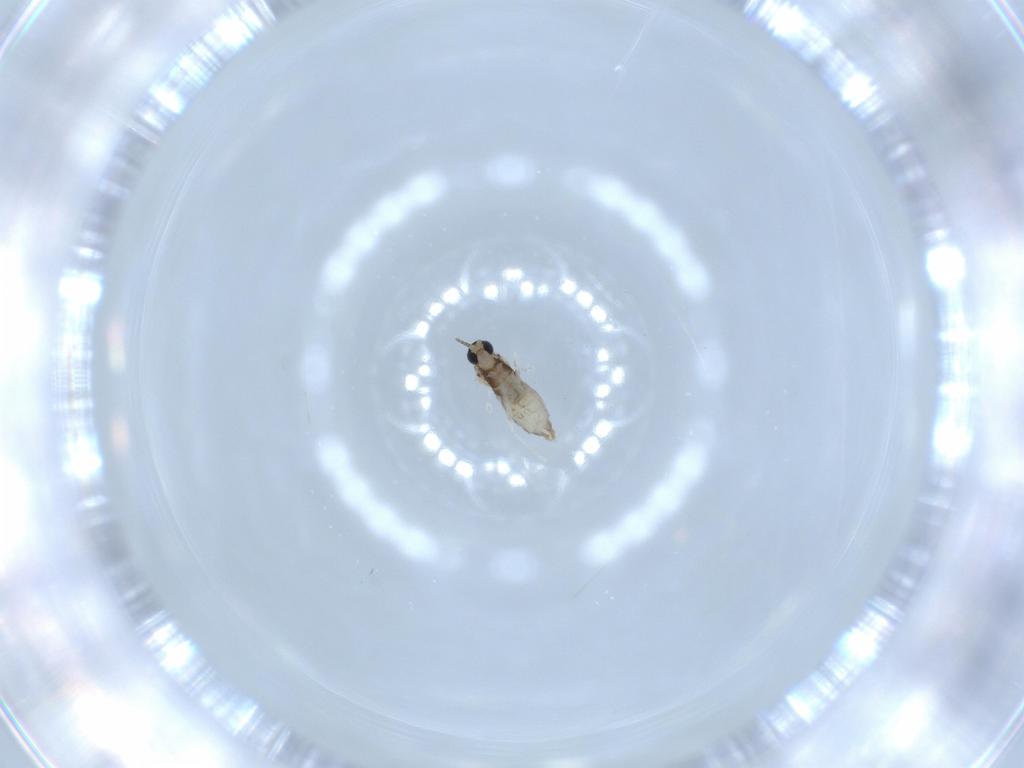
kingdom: Animalia
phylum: Arthropoda
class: Insecta
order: Diptera
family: Cecidomyiidae
